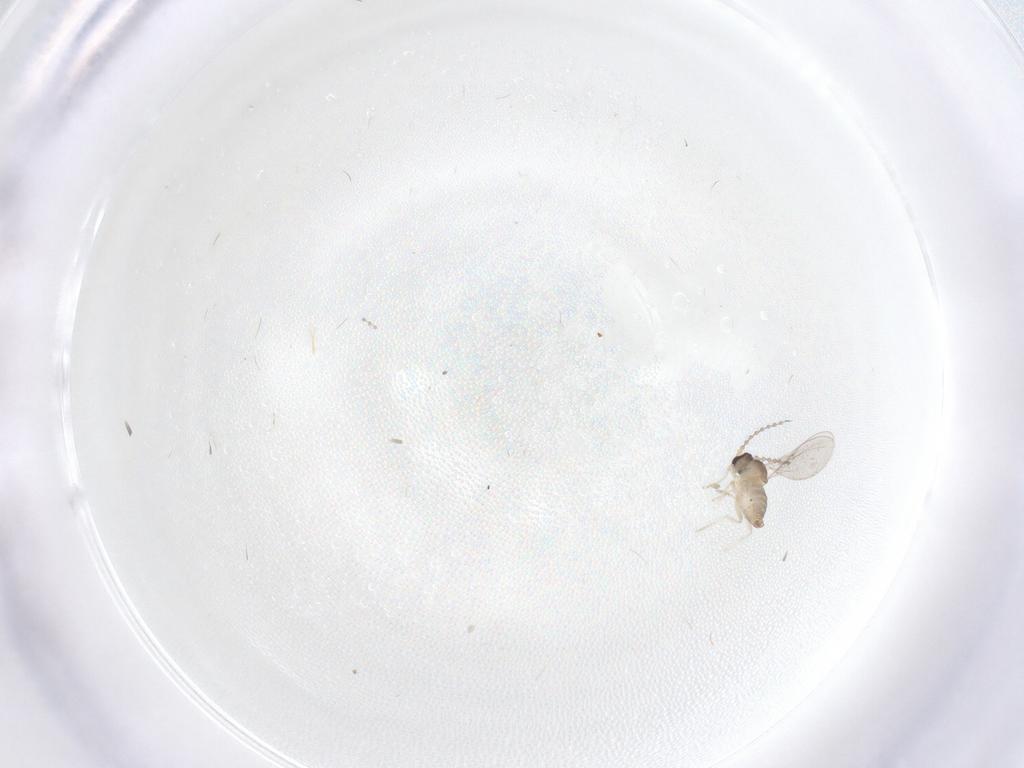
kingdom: Animalia
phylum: Arthropoda
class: Insecta
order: Diptera
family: Cecidomyiidae
